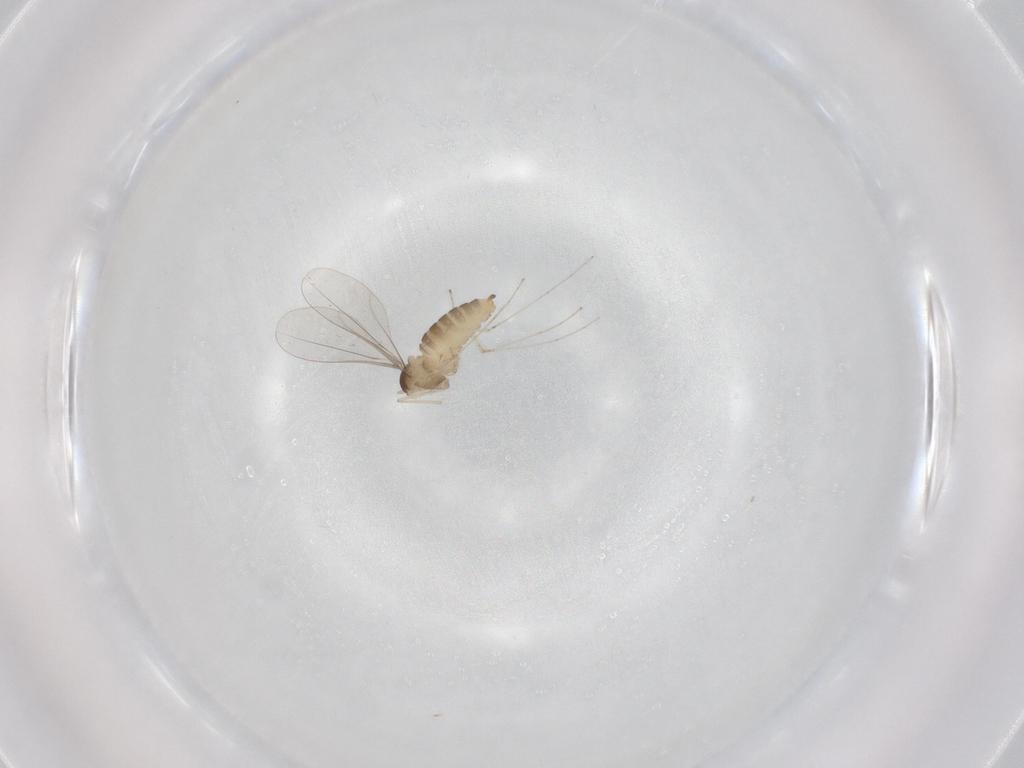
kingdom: Animalia
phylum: Arthropoda
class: Insecta
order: Diptera
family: Cecidomyiidae
